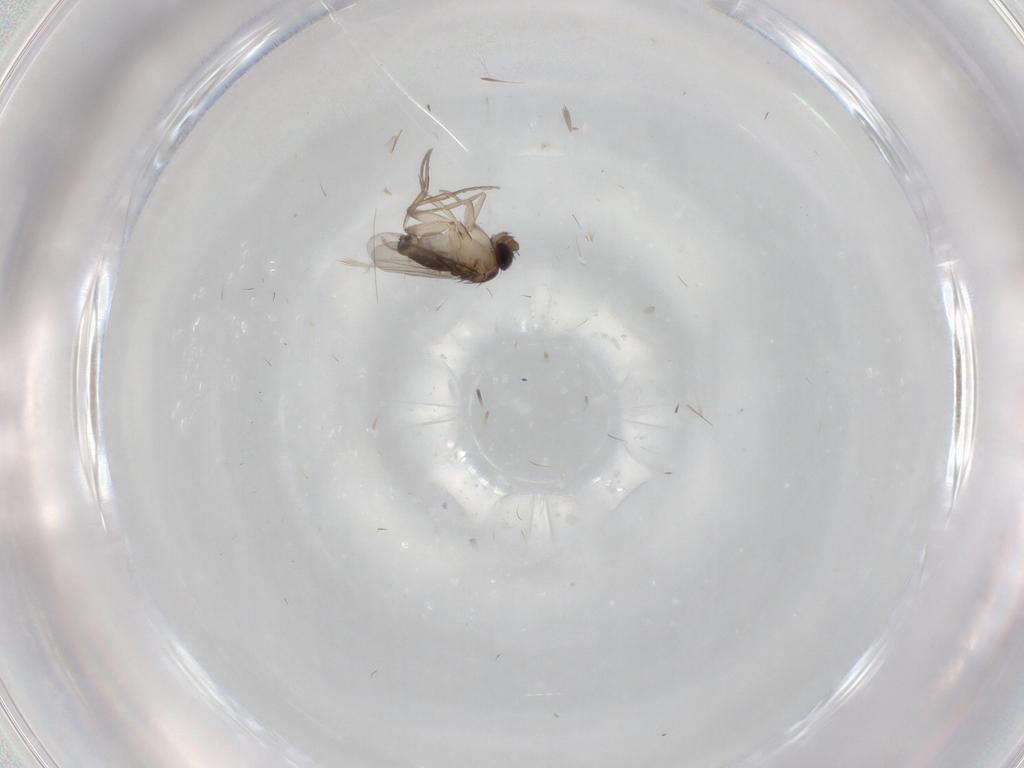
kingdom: Animalia
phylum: Arthropoda
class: Insecta
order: Diptera
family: Phoridae
